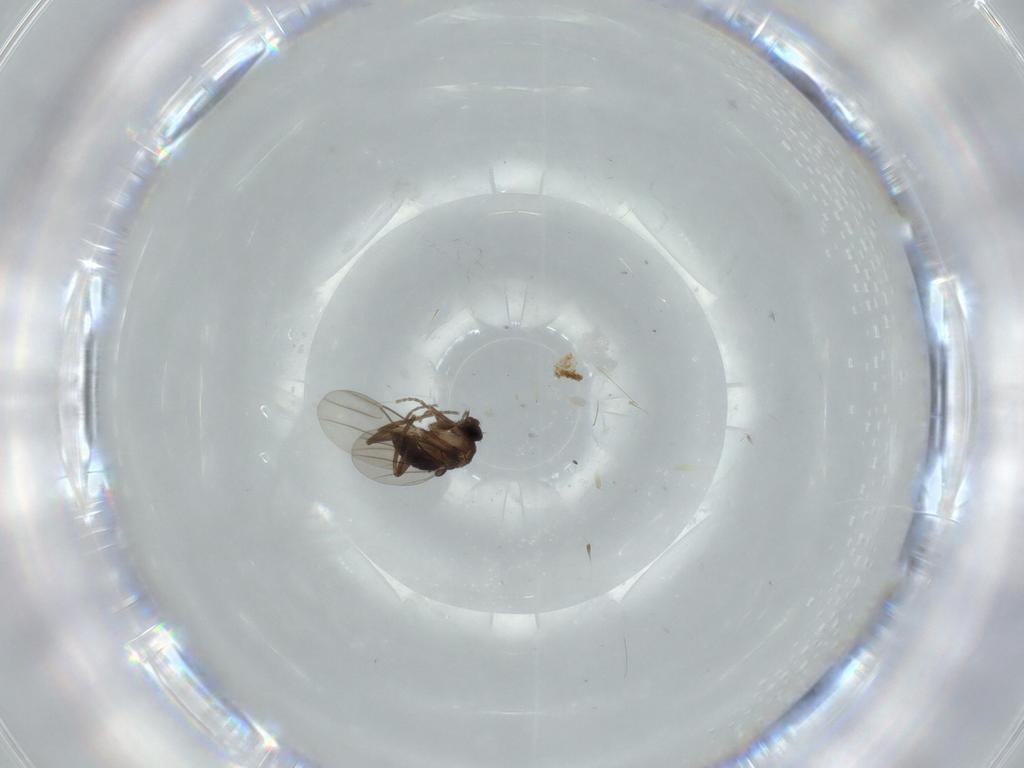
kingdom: Animalia
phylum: Arthropoda
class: Insecta
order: Diptera
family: Phoridae
